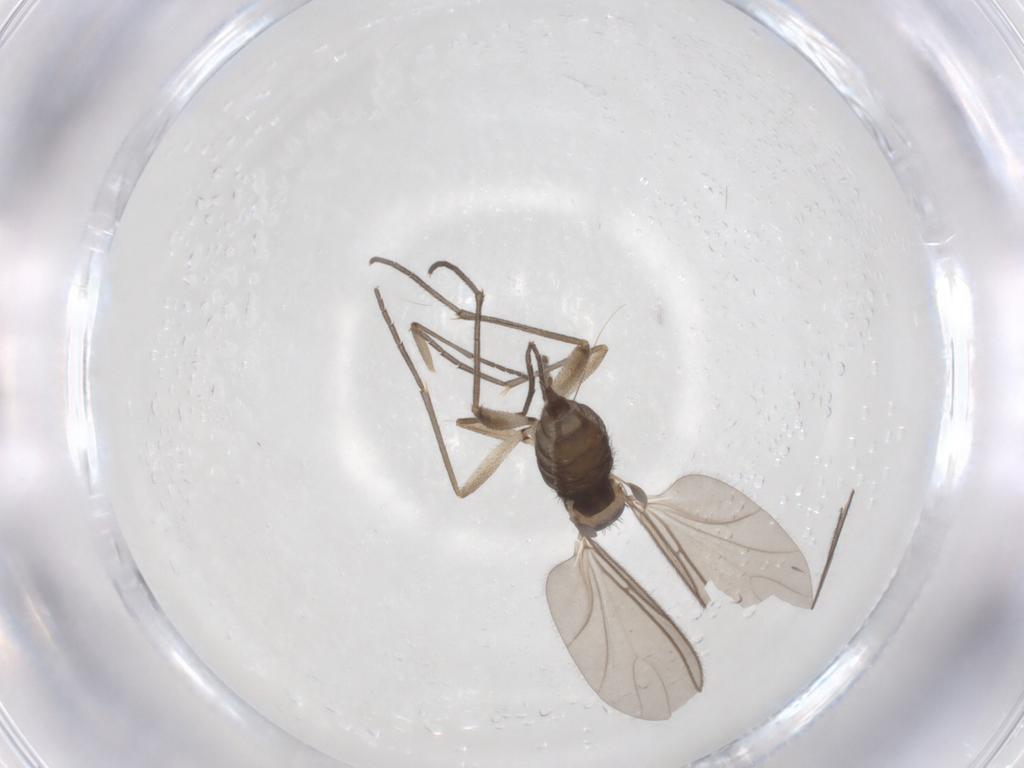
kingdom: Animalia
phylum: Arthropoda
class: Insecta
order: Diptera
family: Sciaridae
